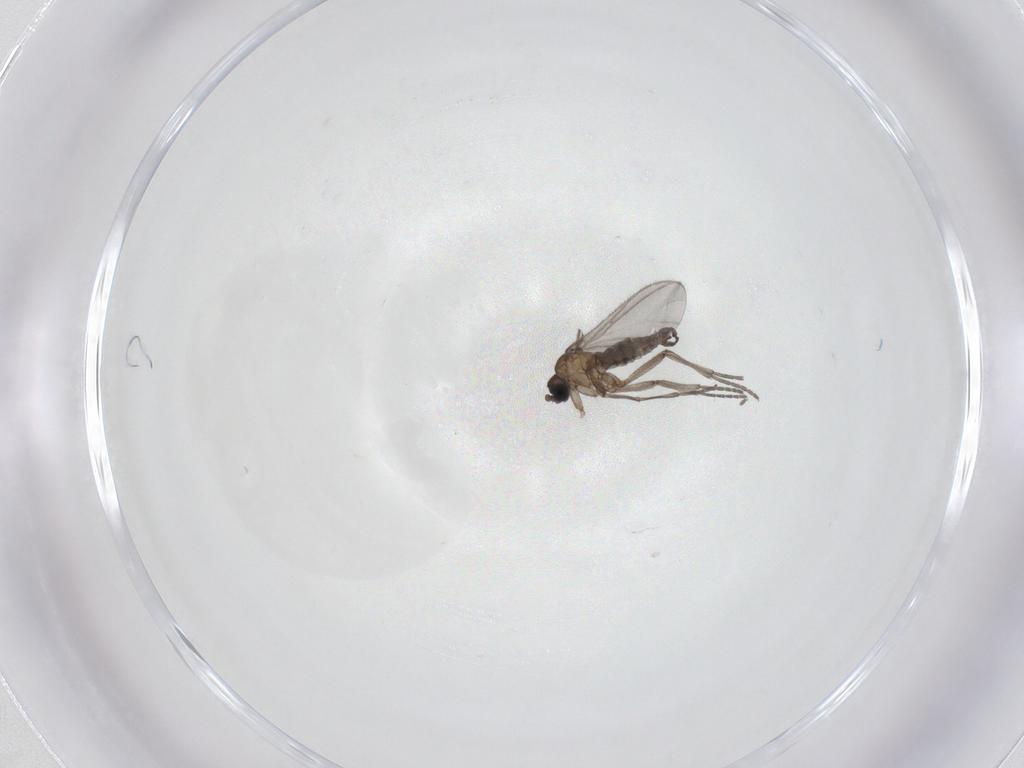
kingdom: Animalia
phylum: Arthropoda
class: Insecta
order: Diptera
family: Sciaridae
